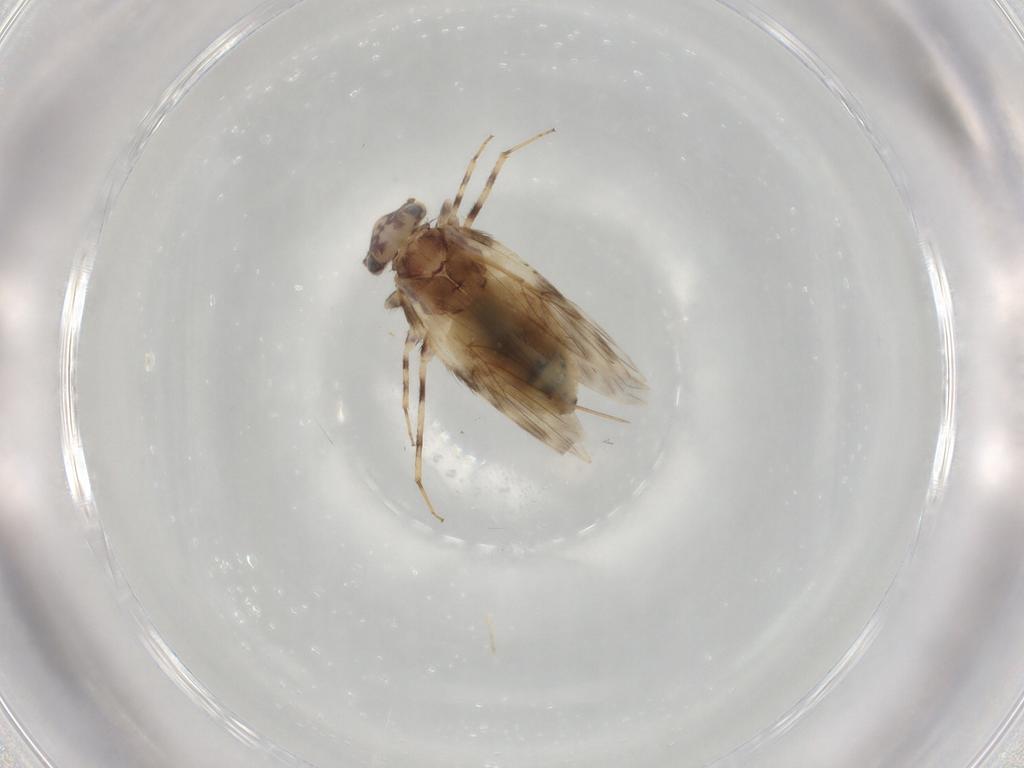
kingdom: Animalia
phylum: Arthropoda
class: Insecta
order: Psocodea
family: Lepidopsocidae
